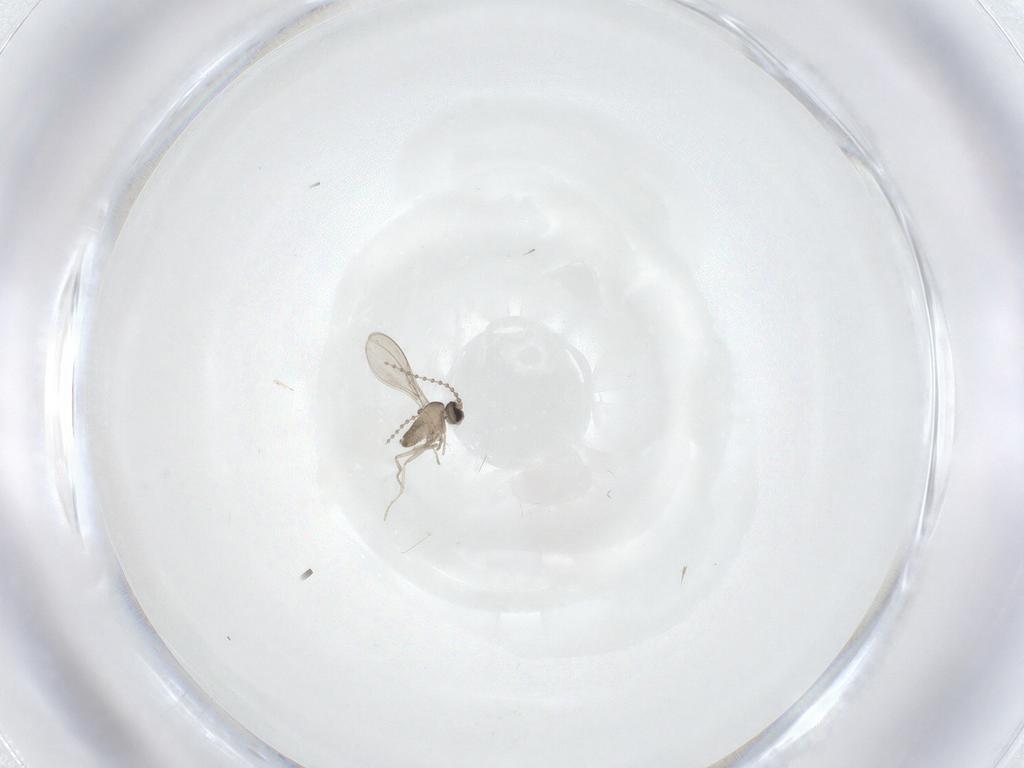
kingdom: Animalia
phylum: Arthropoda
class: Insecta
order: Diptera
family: Cecidomyiidae
